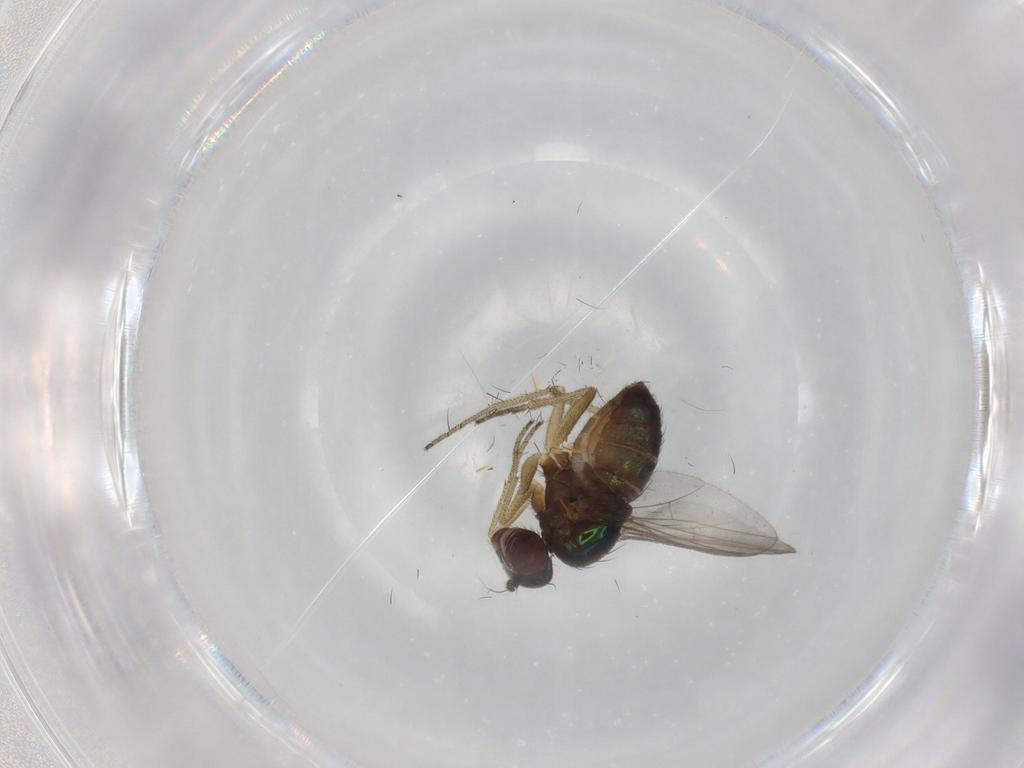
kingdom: Animalia
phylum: Arthropoda
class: Insecta
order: Diptera
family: Dolichopodidae
